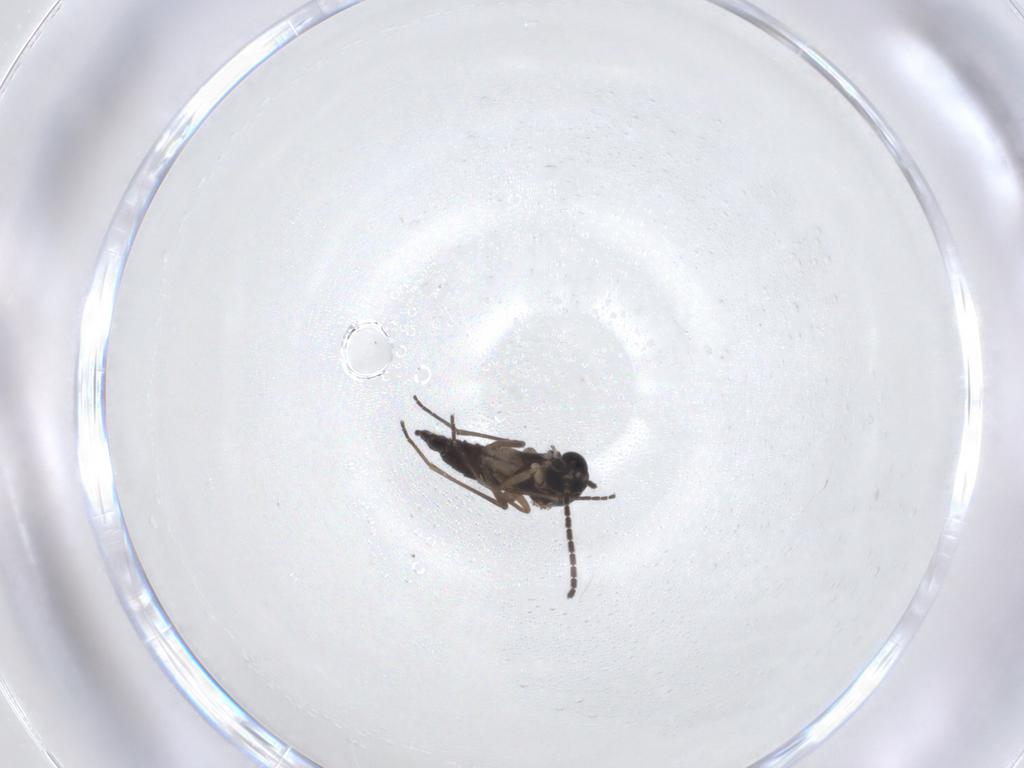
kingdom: Animalia
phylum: Arthropoda
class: Insecta
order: Diptera
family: Sciaridae
